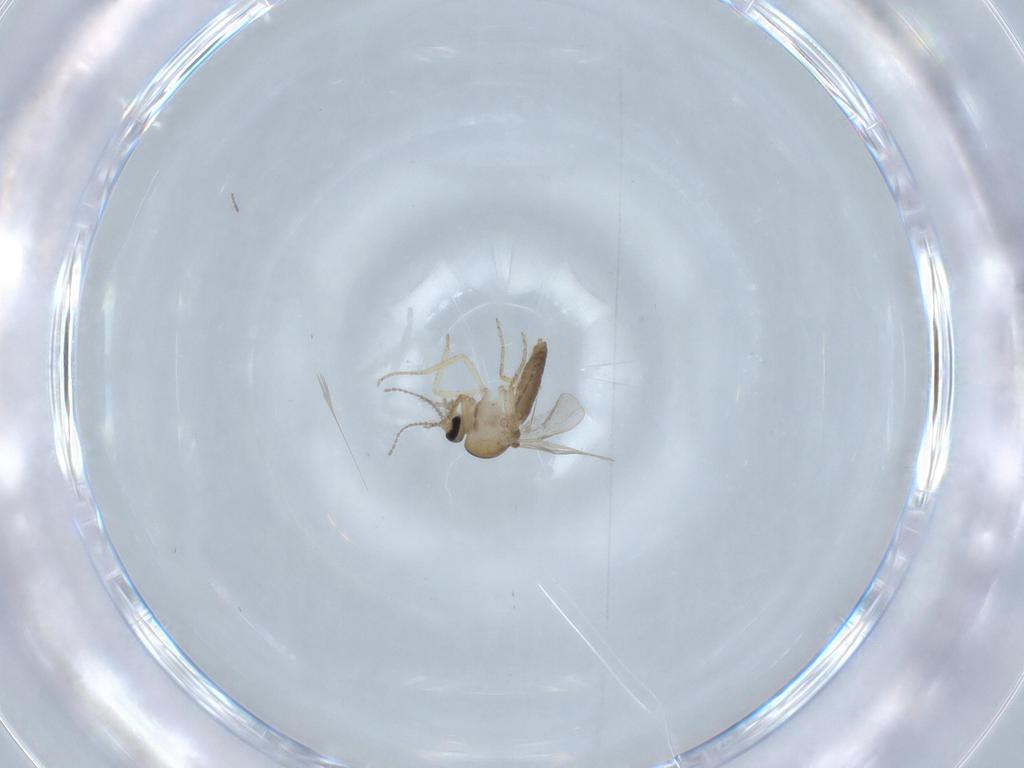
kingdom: Animalia
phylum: Arthropoda
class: Insecta
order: Diptera
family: Ceratopogonidae
